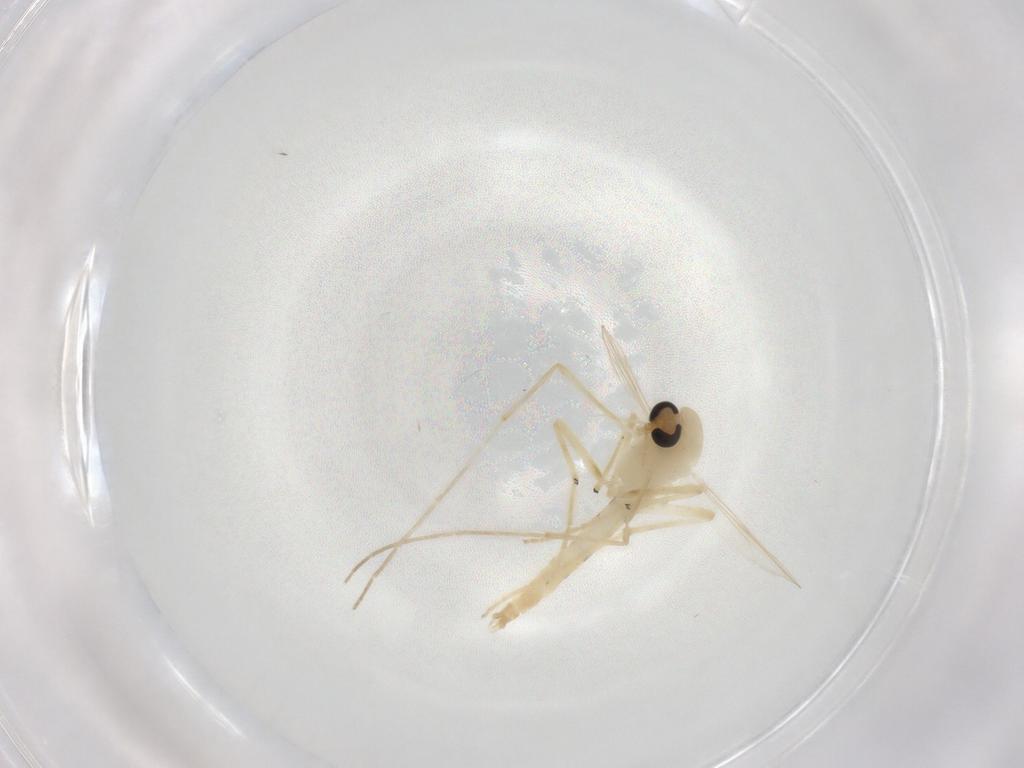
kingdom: Animalia
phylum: Arthropoda
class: Insecta
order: Diptera
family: Chironomidae
